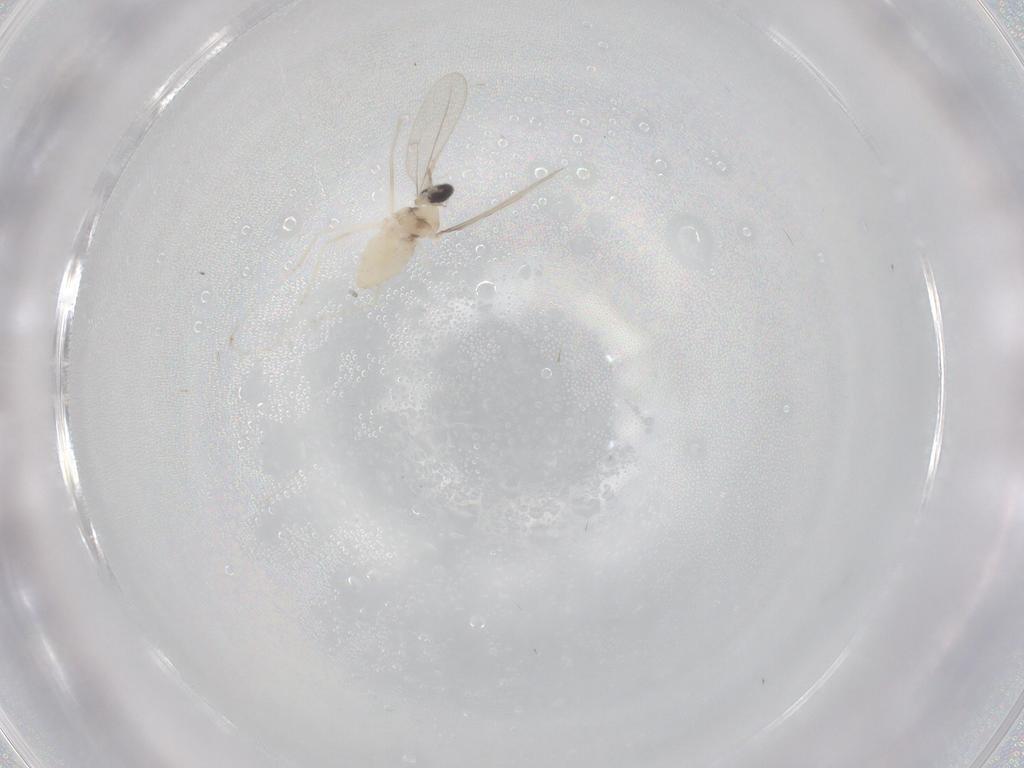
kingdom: Animalia
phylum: Arthropoda
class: Insecta
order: Diptera
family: Cecidomyiidae
